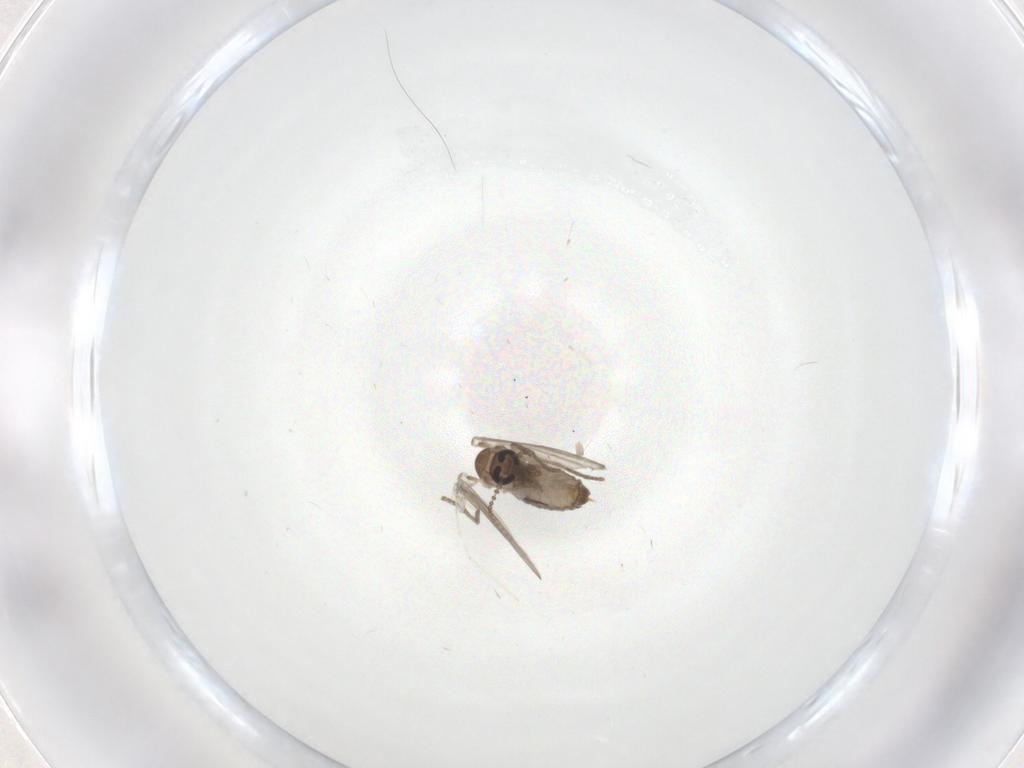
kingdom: Animalia
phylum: Arthropoda
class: Insecta
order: Diptera
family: Psychodidae
